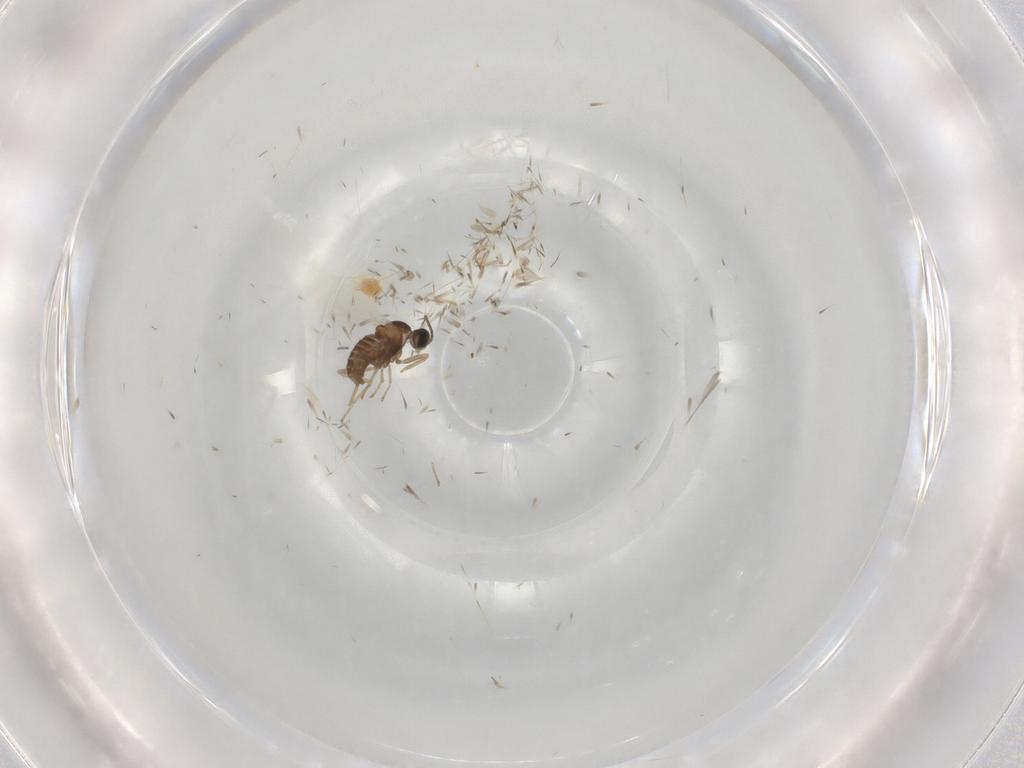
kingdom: Animalia
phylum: Arthropoda
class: Insecta
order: Diptera
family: Cecidomyiidae
